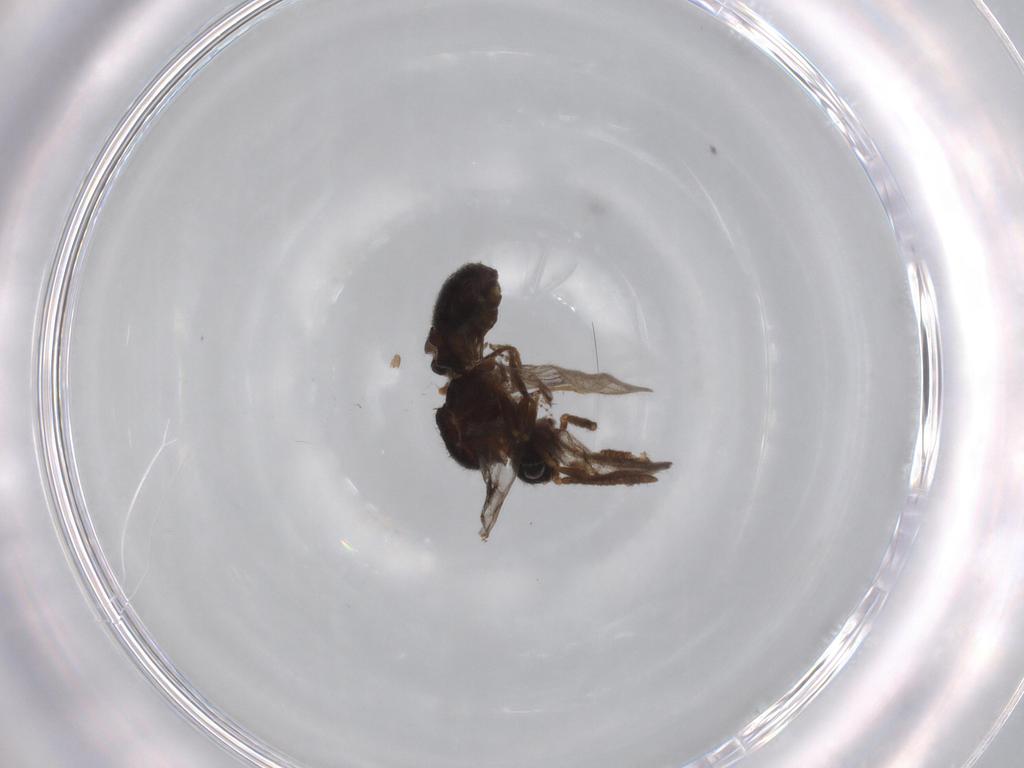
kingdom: Animalia
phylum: Arthropoda
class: Insecta
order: Diptera
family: Chironomidae
